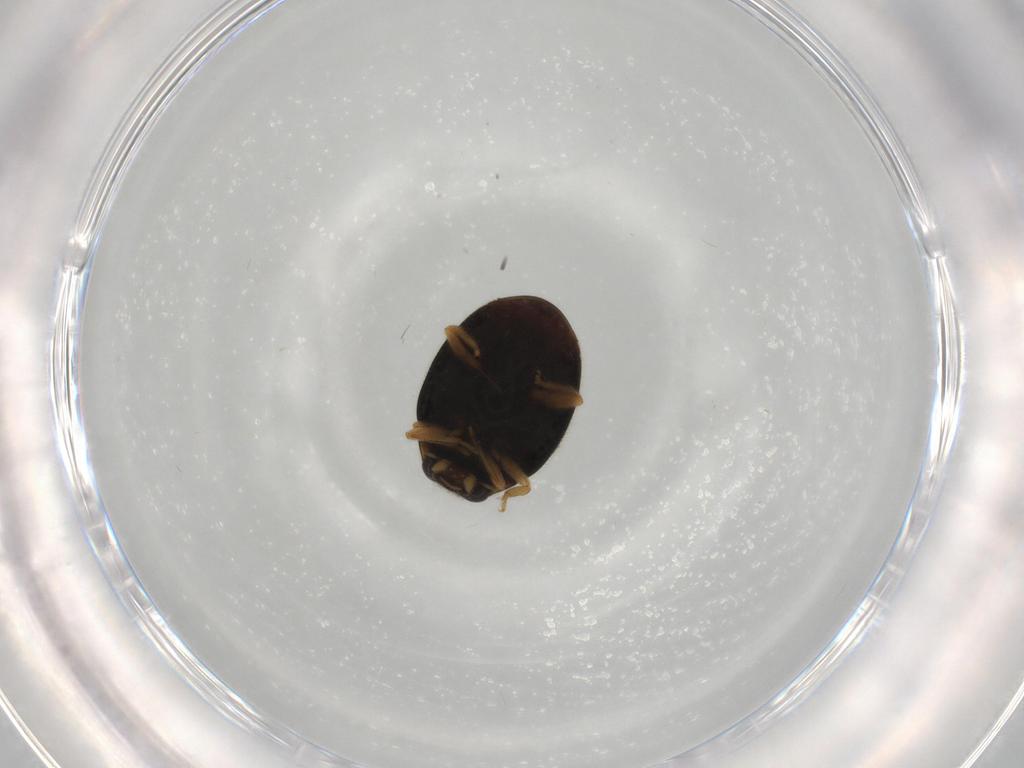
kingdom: Animalia
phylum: Arthropoda
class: Insecta
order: Coleoptera
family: Coccinellidae
